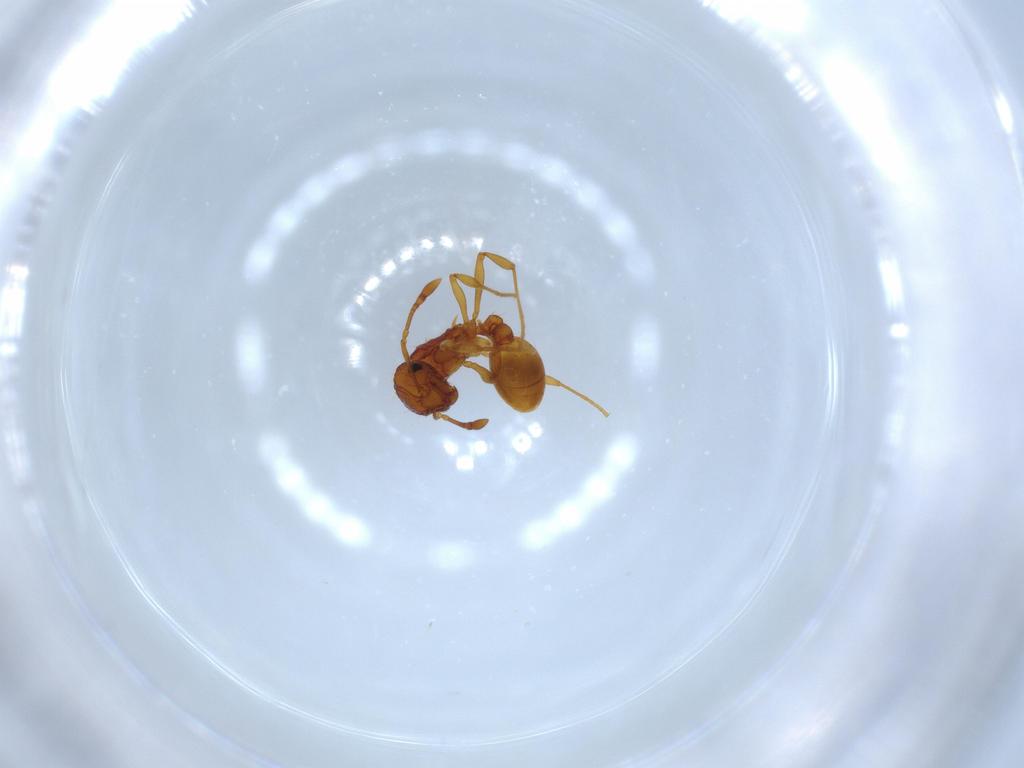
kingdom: Animalia
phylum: Arthropoda
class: Insecta
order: Hymenoptera
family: Formicidae
